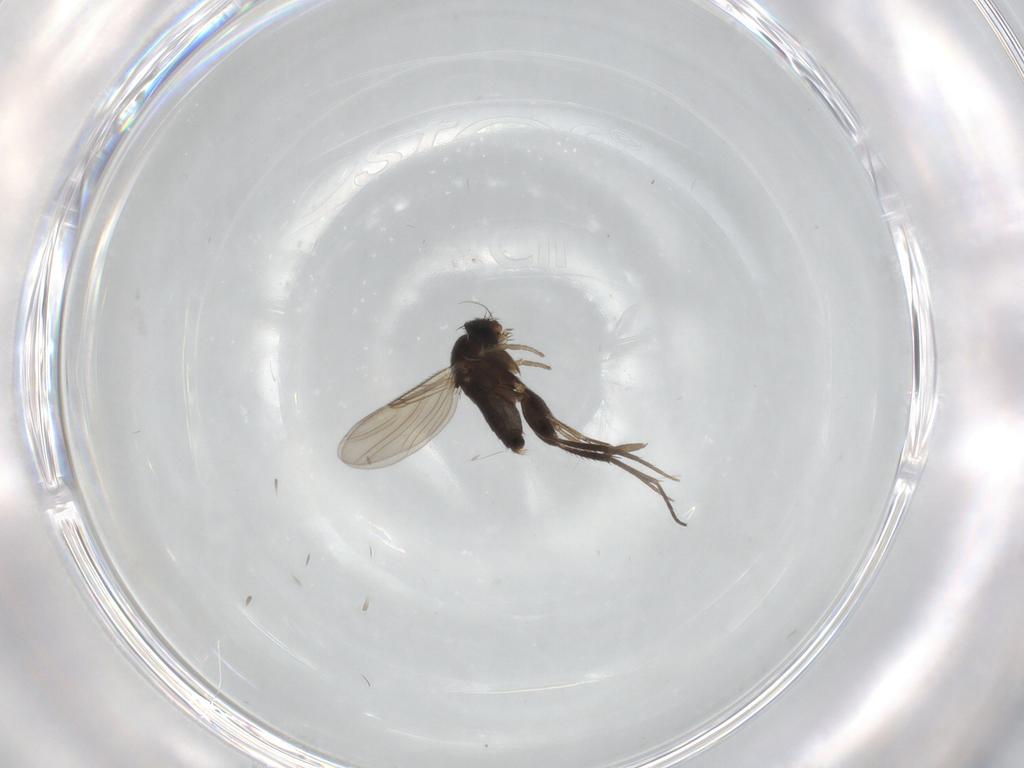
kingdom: Animalia
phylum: Arthropoda
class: Insecta
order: Diptera
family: Phoridae
